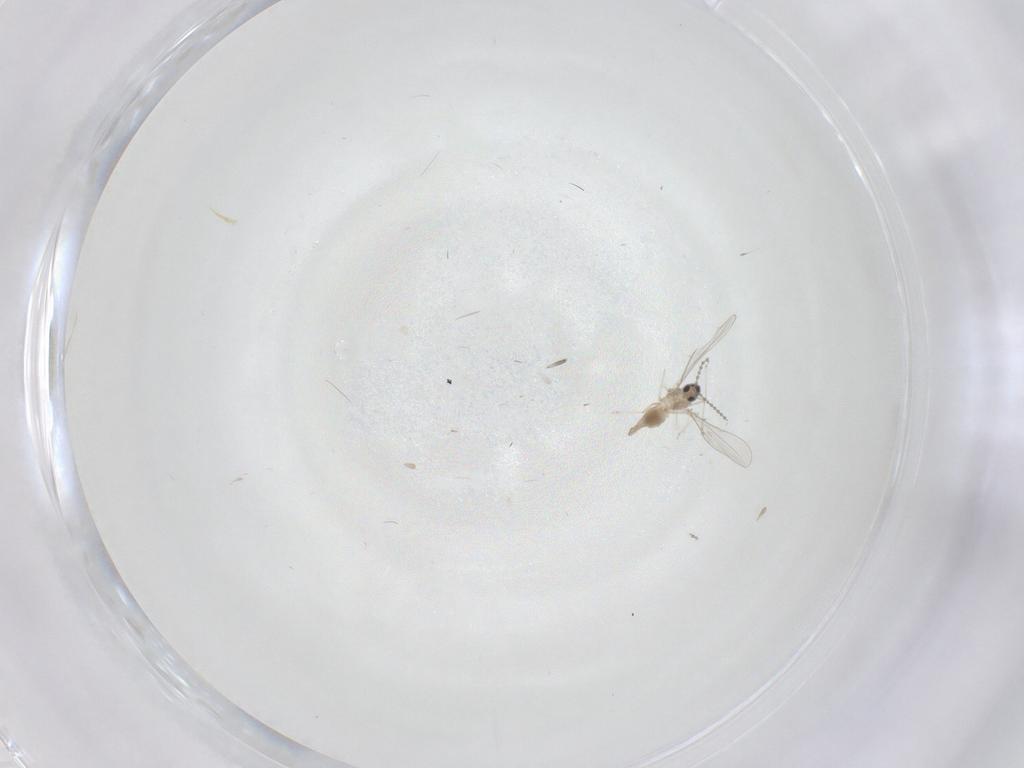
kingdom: Animalia
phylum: Arthropoda
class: Insecta
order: Diptera
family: Cecidomyiidae
